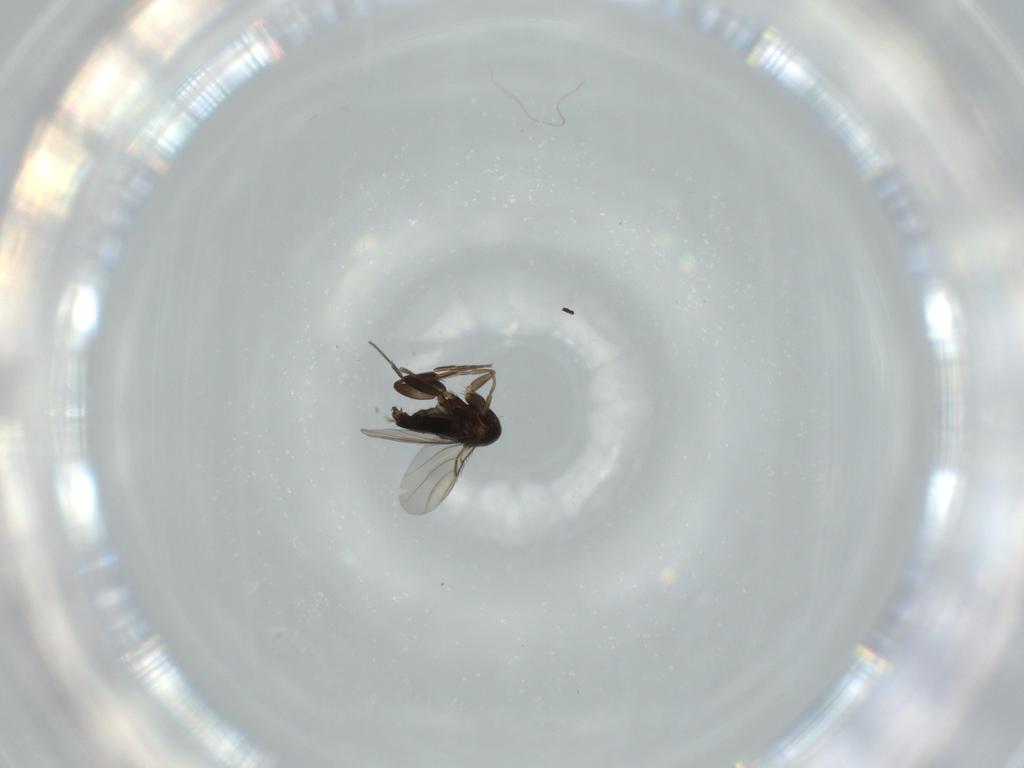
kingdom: Animalia
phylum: Arthropoda
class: Insecta
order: Diptera
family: Phoridae
